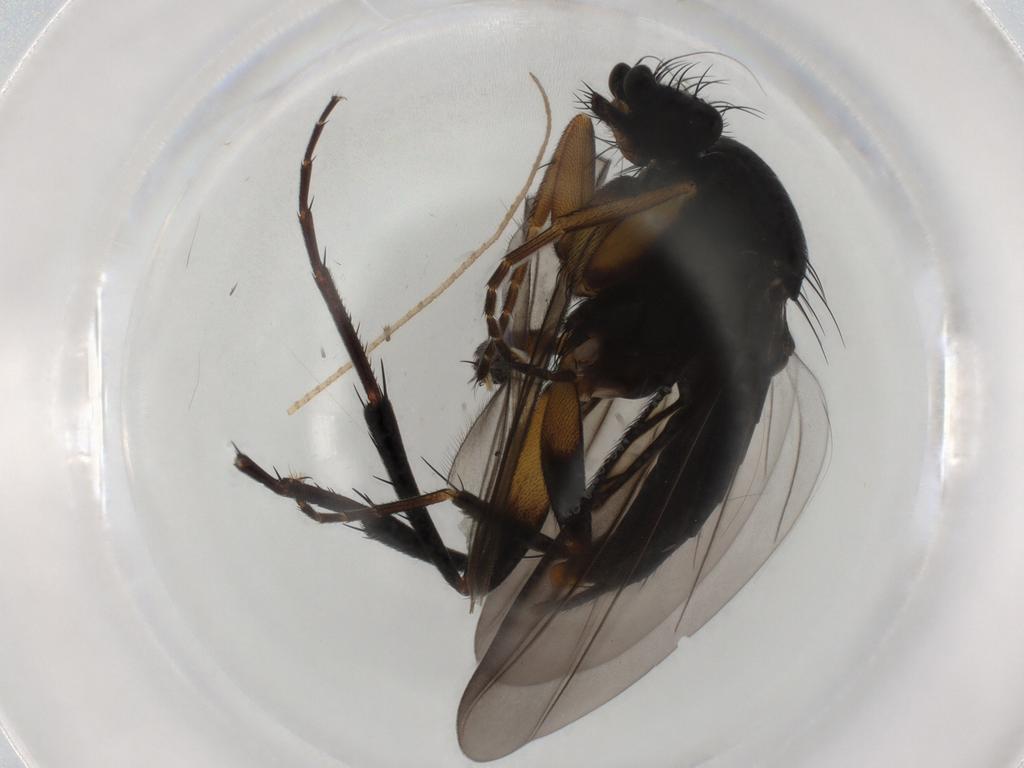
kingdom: Animalia
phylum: Arthropoda
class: Insecta
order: Diptera
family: Phoridae
